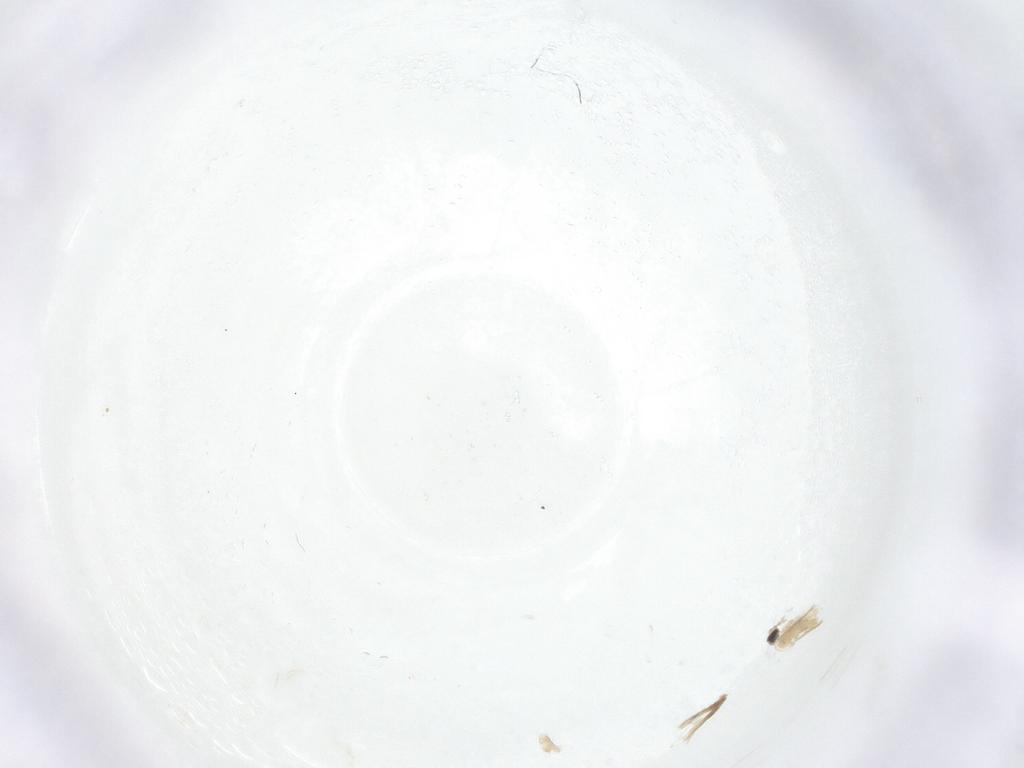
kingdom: Animalia
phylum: Arthropoda
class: Insecta
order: Diptera
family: Cecidomyiidae
